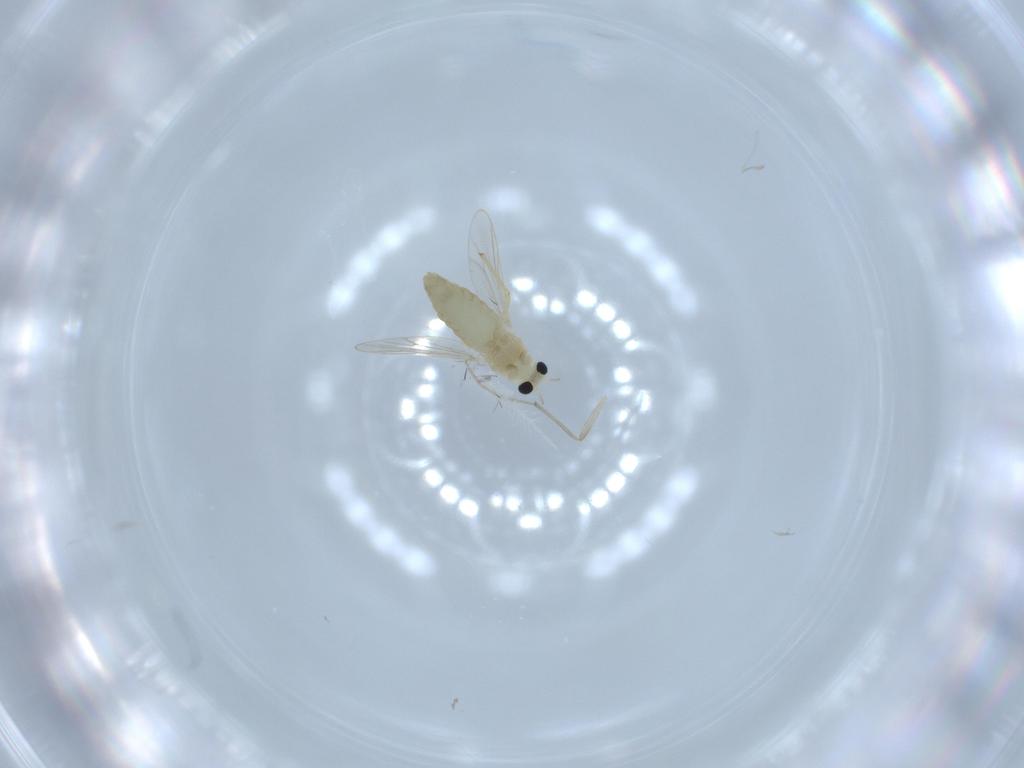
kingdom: Animalia
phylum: Arthropoda
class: Insecta
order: Diptera
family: Chironomidae
